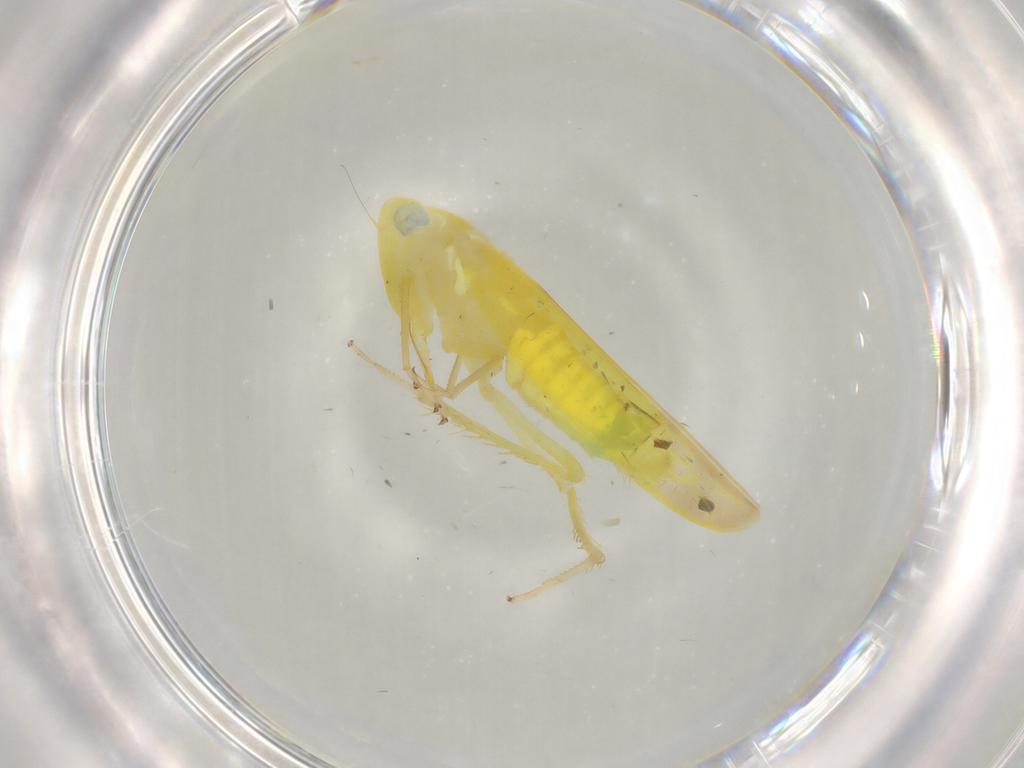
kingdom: Animalia
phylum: Arthropoda
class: Insecta
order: Hemiptera
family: Cicadellidae
